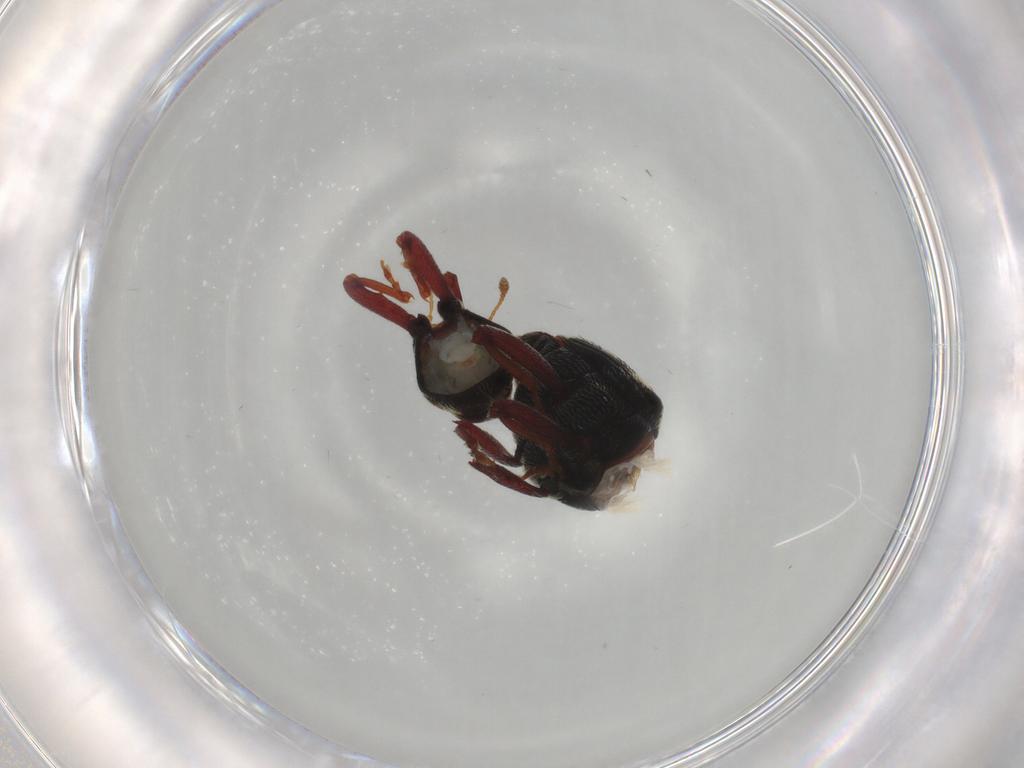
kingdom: Animalia
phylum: Arthropoda
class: Insecta
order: Coleoptera
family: Curculionidae
